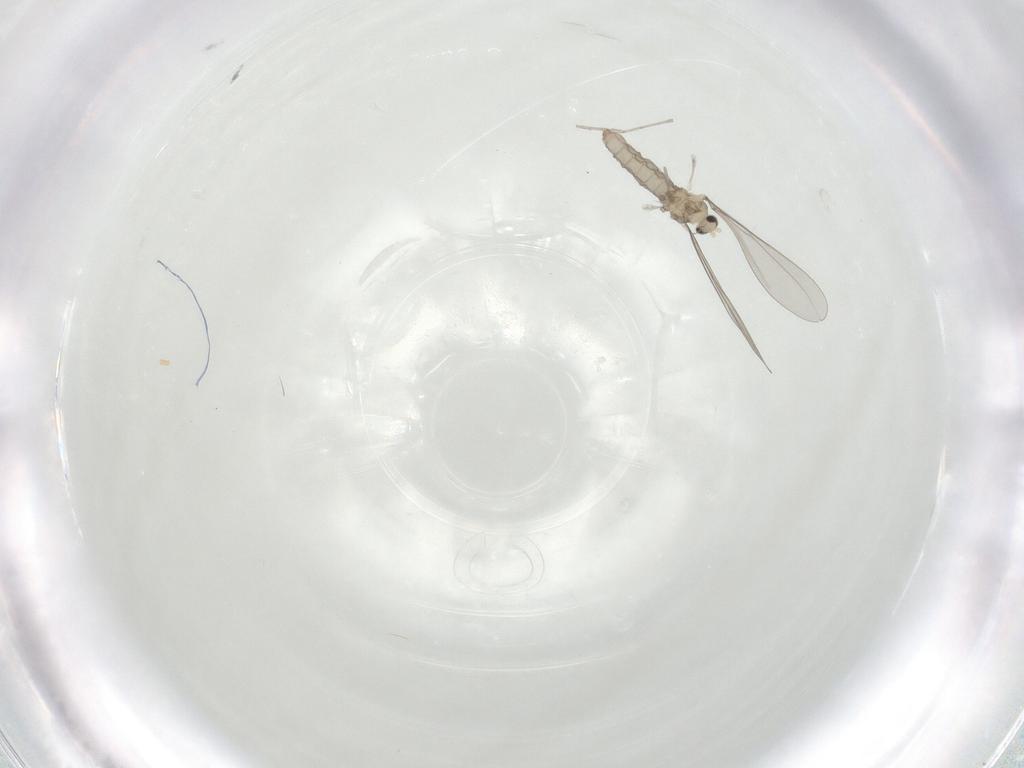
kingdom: Animalia
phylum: Arthropoda
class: Insecta
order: Diptera
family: Cecidomyiidae
